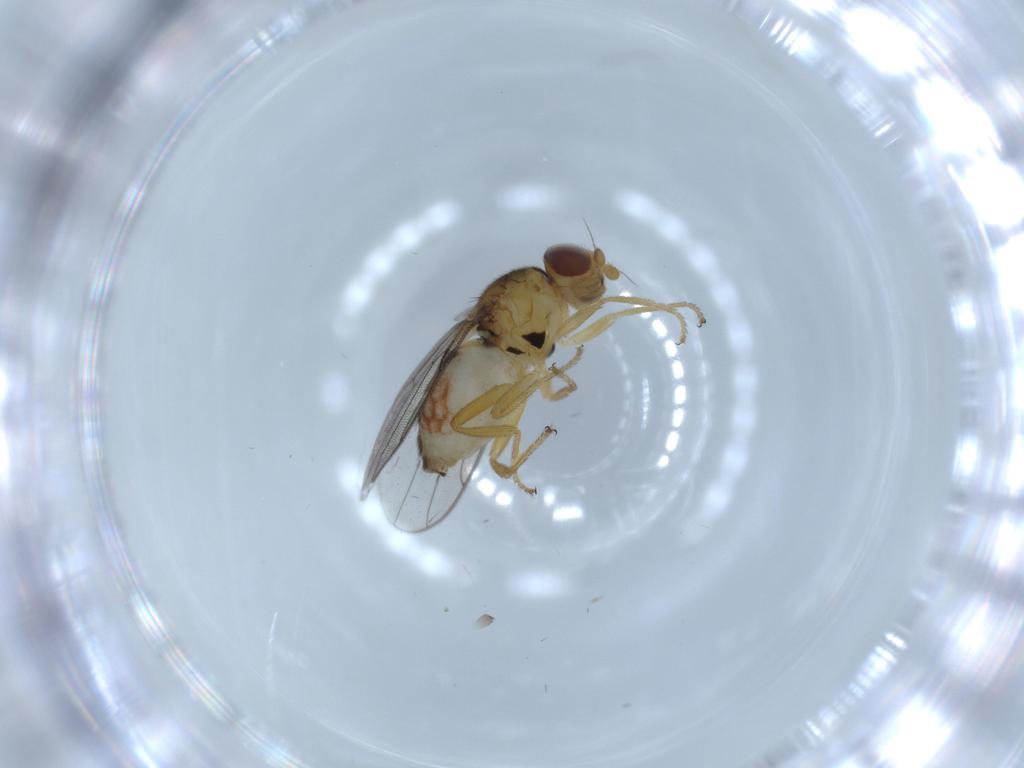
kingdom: Animalia
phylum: Arthropoda
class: Insecta
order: Diptera
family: Chloropidae
